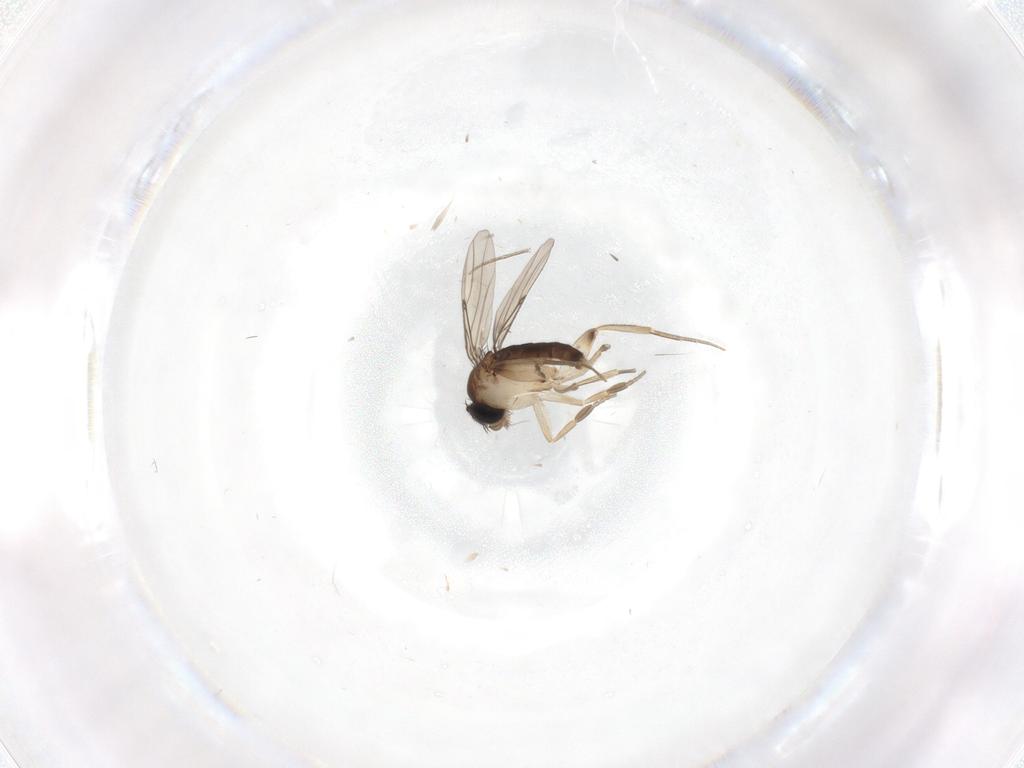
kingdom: Animalia
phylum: Arthropoda
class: Insecta
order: Diptera
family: Phoridae
